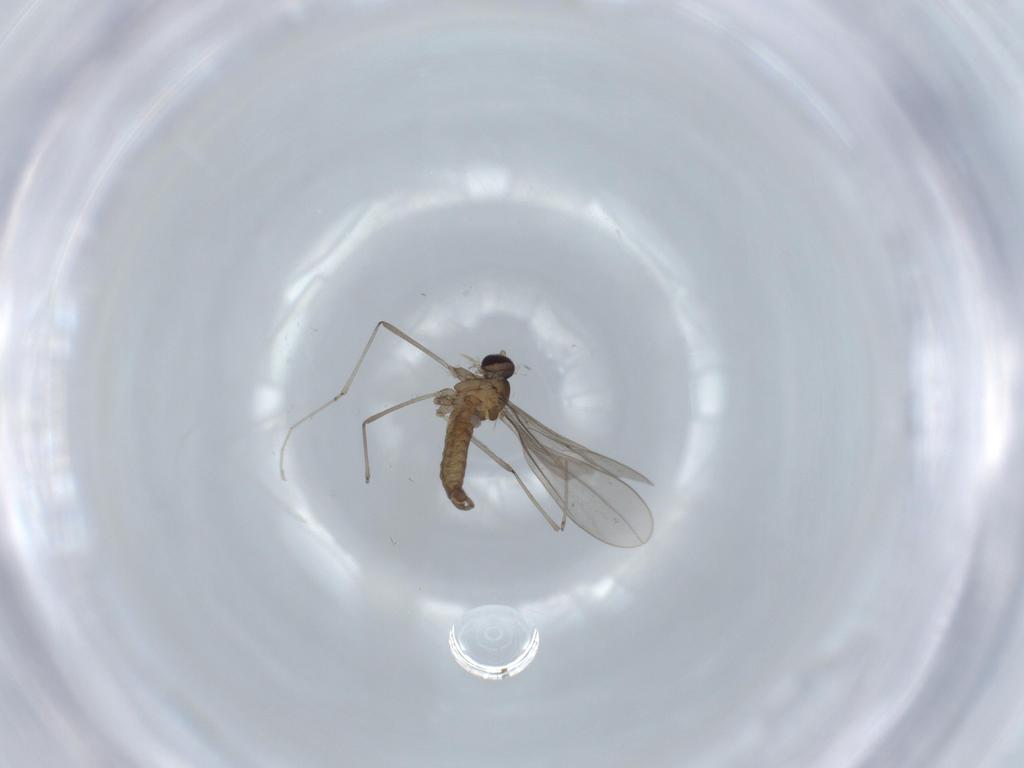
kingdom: Animalia
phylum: Arthropoda
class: Insecta
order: Diptera
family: Cecidomyiidae
